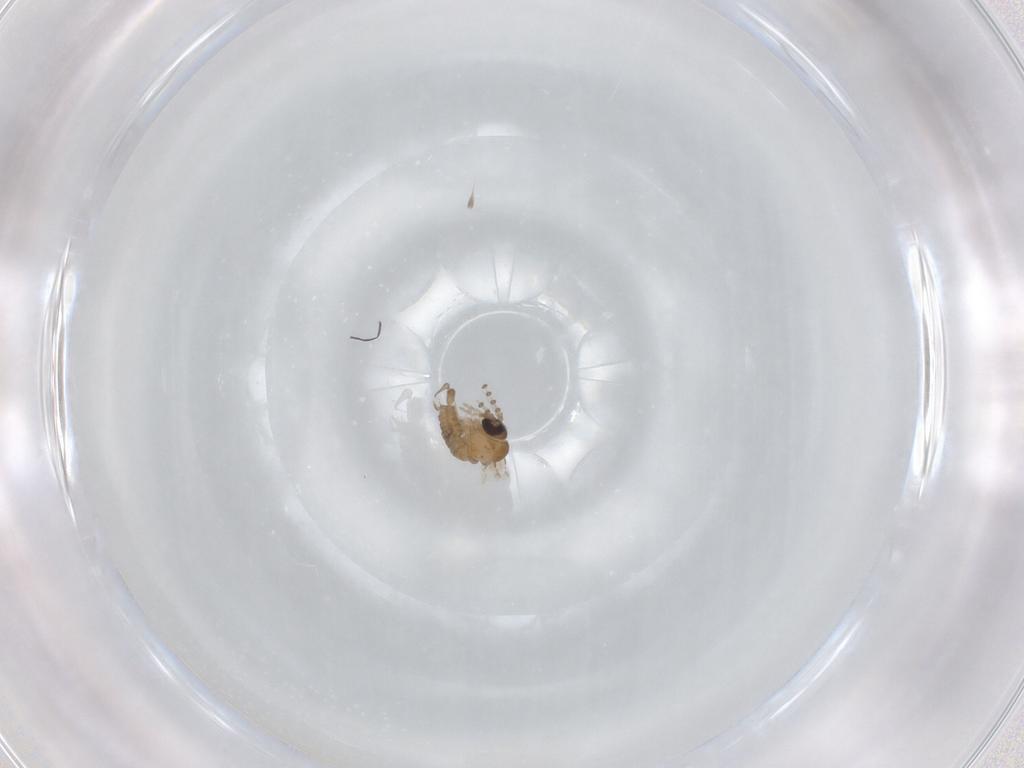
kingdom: Animalia
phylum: Arthropoda
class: Insecta
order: Diptera
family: Psychodidae
